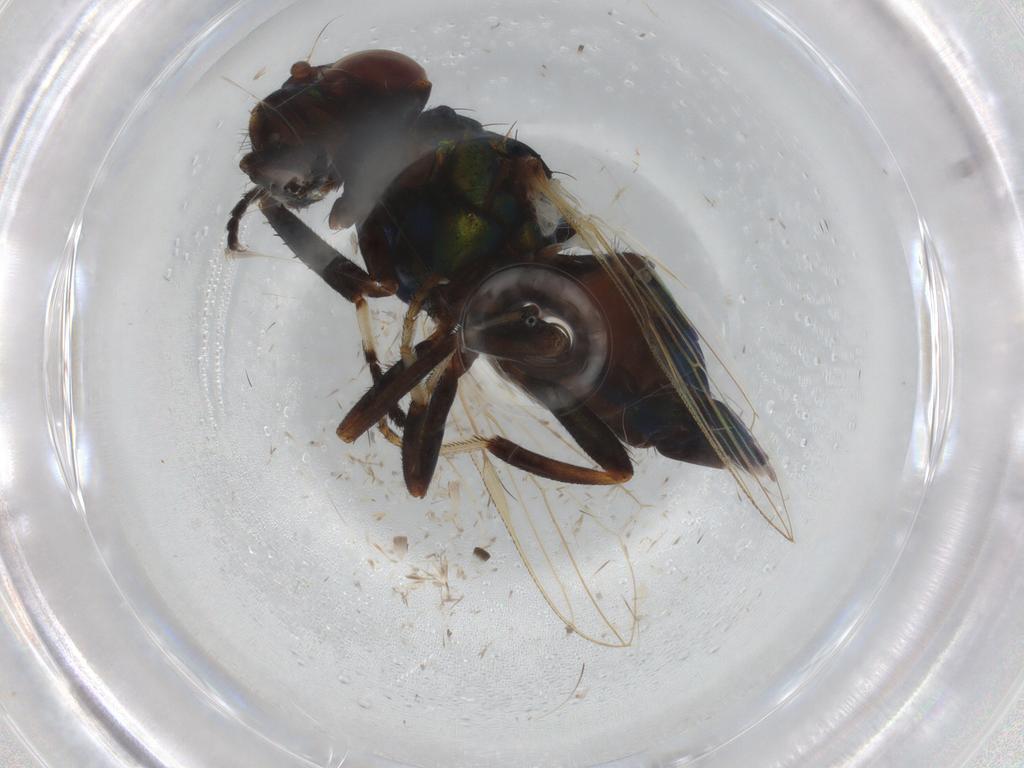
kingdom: Animalia
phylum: Arthropoda
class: Insecta
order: Diptera
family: Ulidiidae
